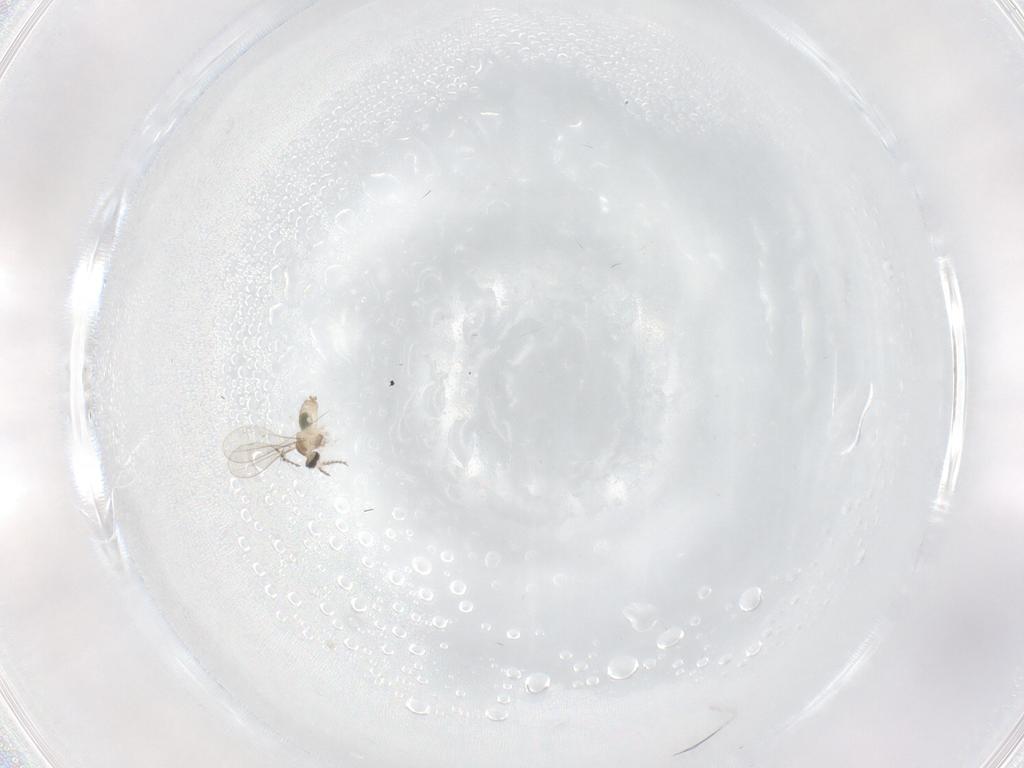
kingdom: Animalia
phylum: Arthropoda
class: Insecta
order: Diptera
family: Cecidomyiidae
